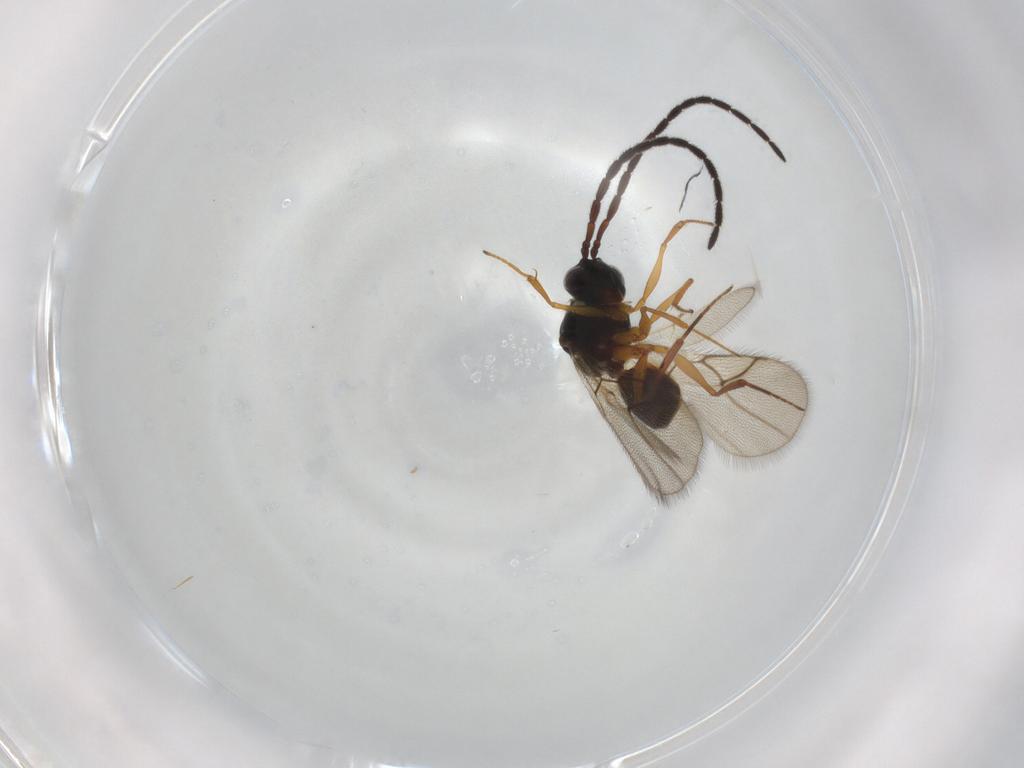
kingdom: Animalia
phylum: Arthropoda
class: Insecta
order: Hymenoptera
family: Figitidae
